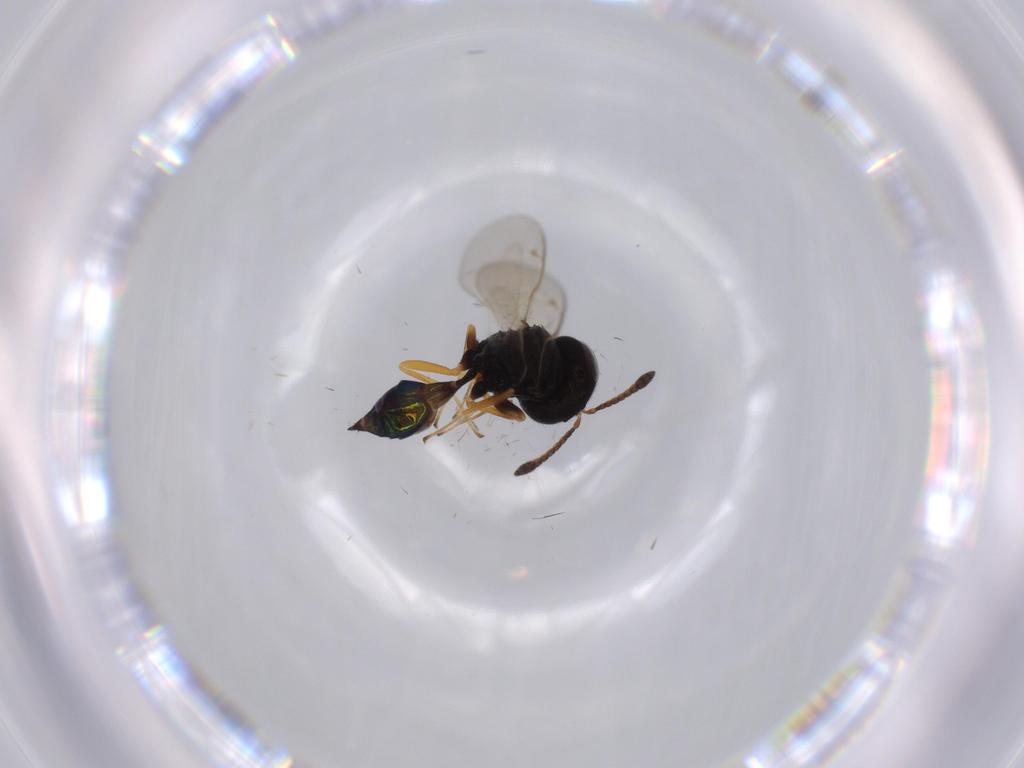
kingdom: Animalia
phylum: Arthropoda
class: Insecta
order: Hymenoptera
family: Pteromalidae
